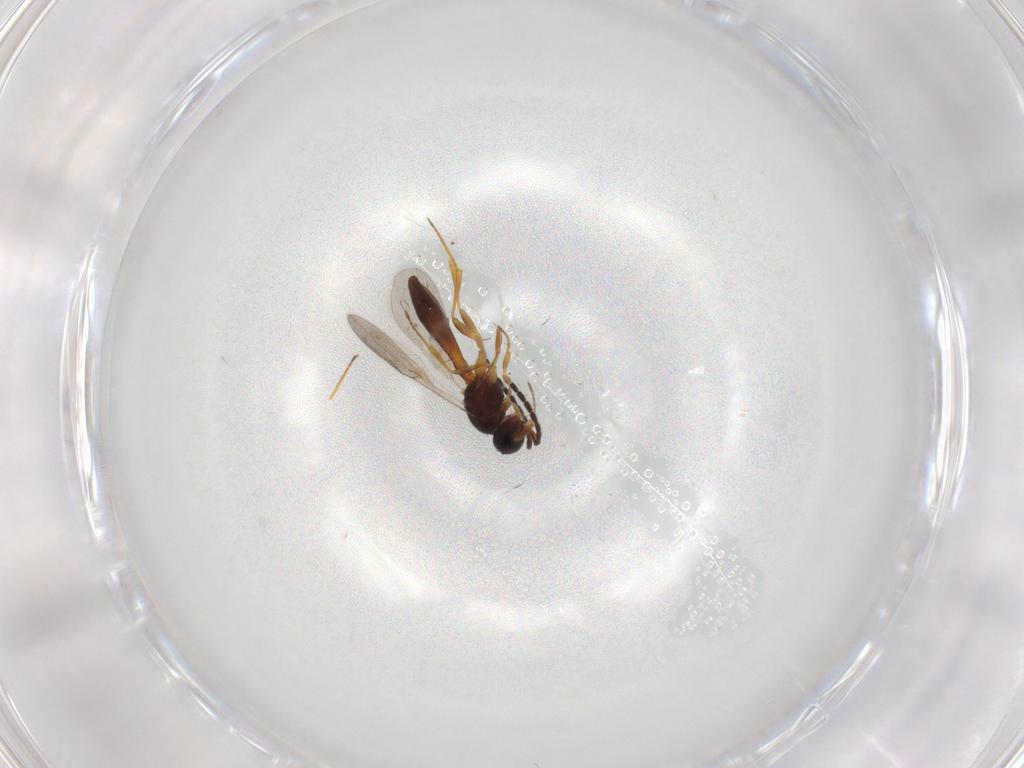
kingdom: Animalia
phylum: Arthropoda
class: Insecta
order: Hymenoptera
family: Scelionidae
